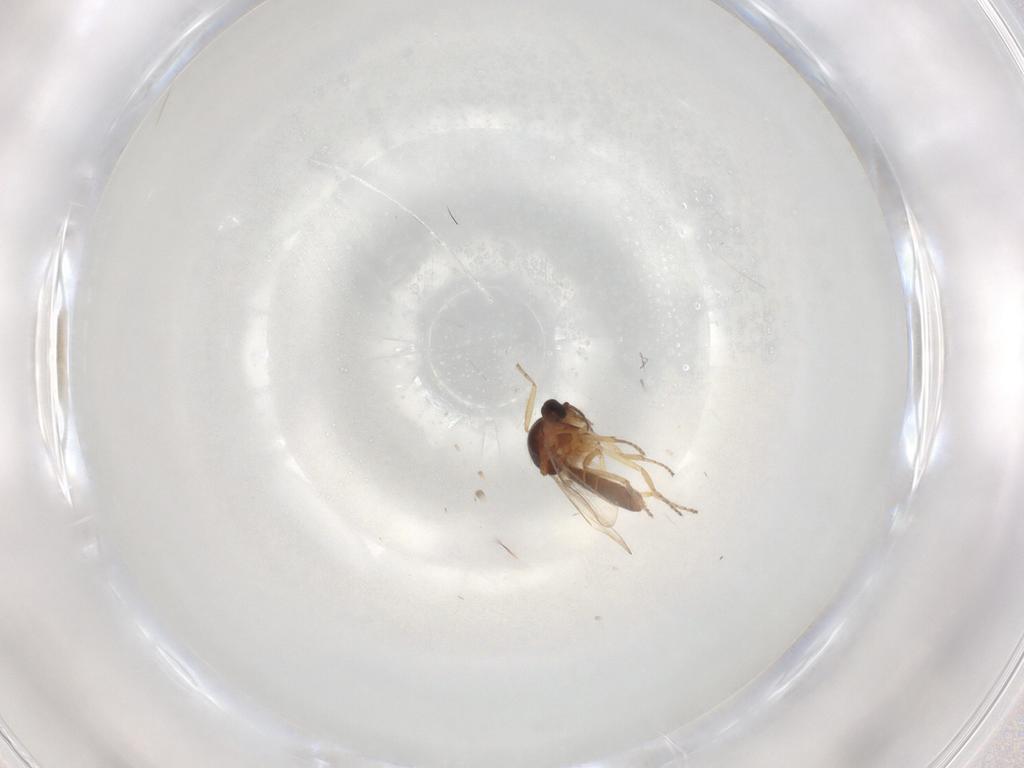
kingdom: Animalia
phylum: Arthropoda
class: Insecta
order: Diptera
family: Ceratopogonidae
